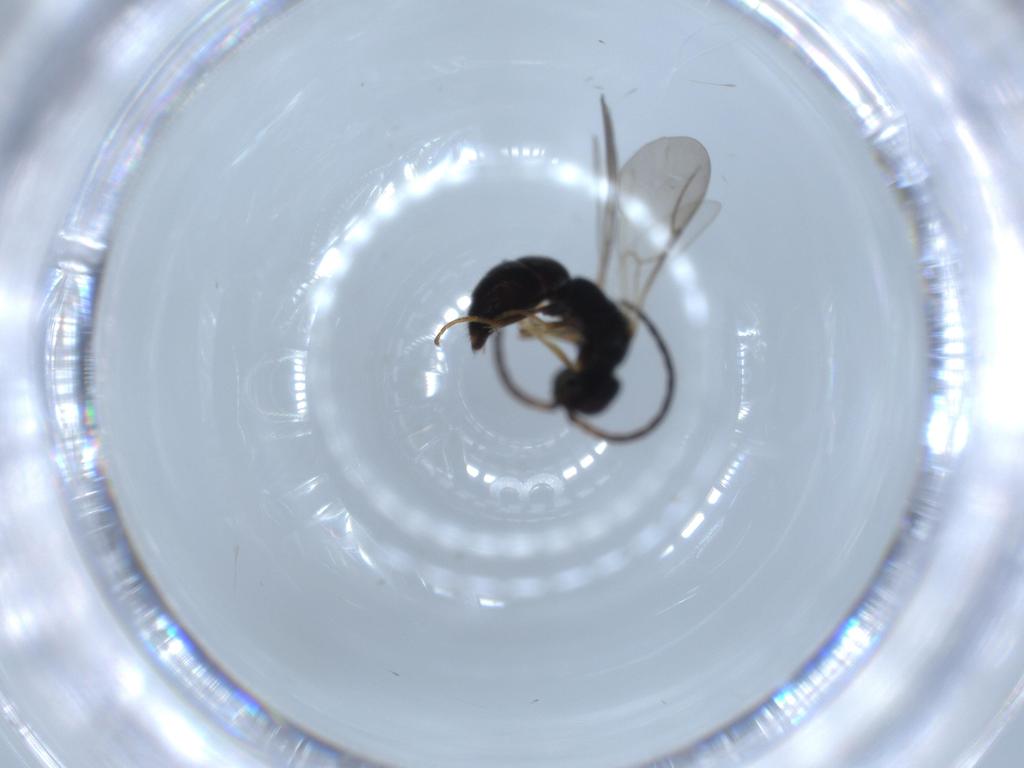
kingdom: Animalia
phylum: Arthropoda
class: Insecta
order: Hymenoptera
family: Bethylidae
